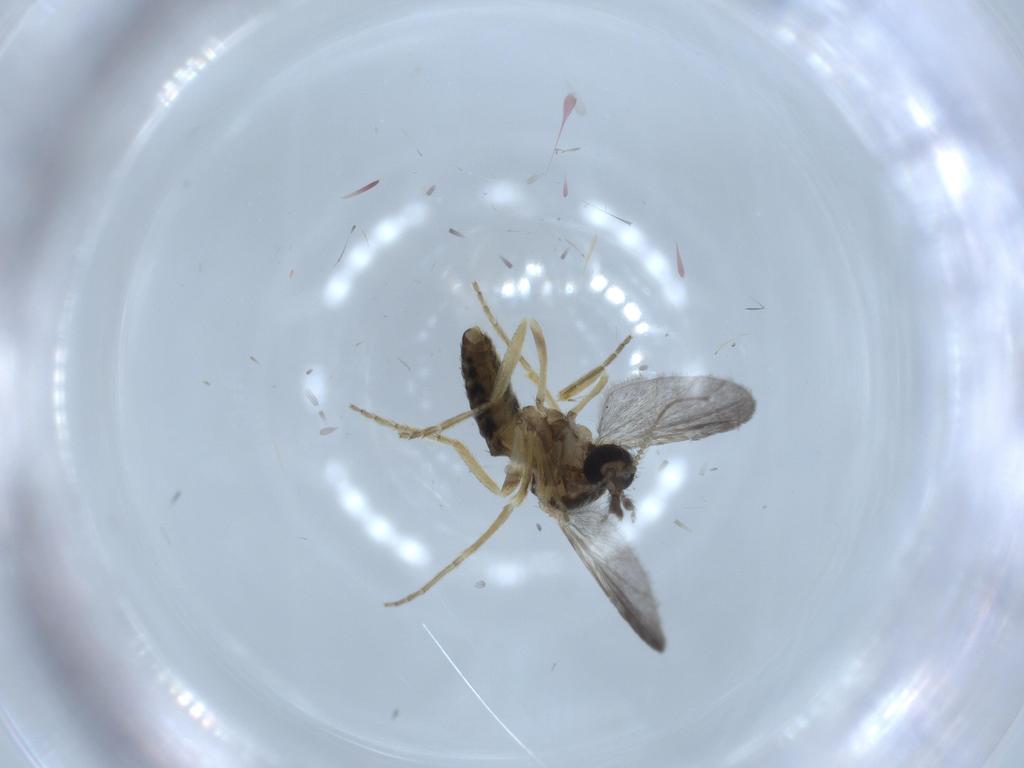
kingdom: Animalia
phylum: Arthropoda
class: Insecta
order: Diptera
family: Ceratopogonidae
